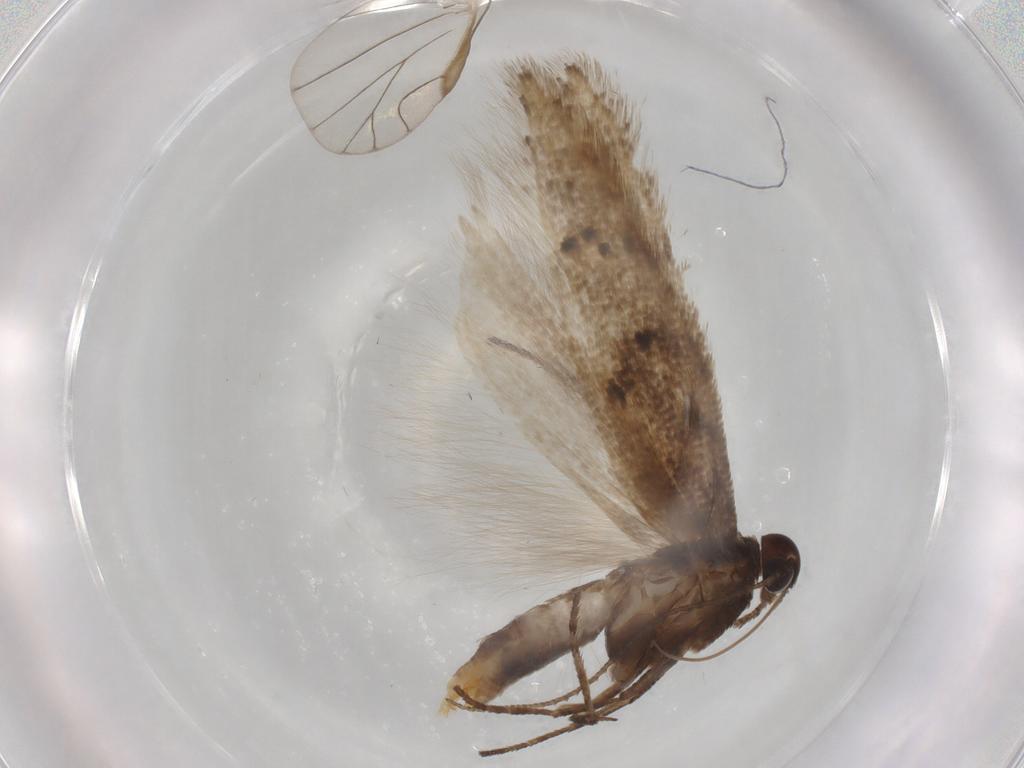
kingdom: Animalia
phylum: Arthropoda
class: Insecta
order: Lepidoptera
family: Gelechiidae
